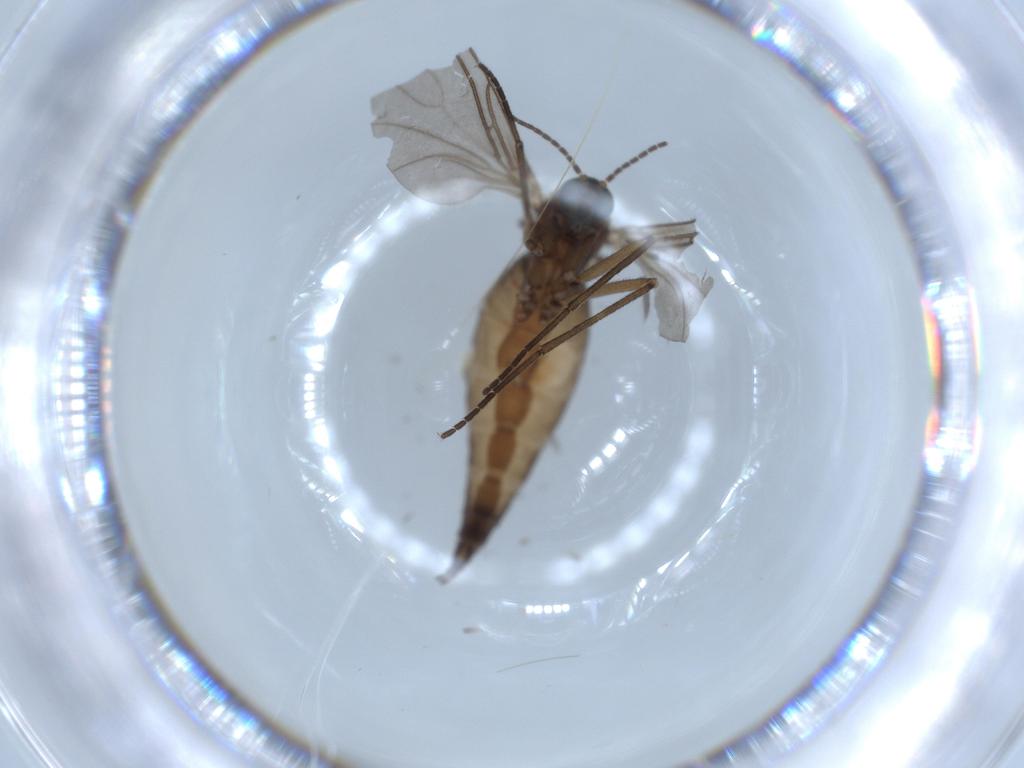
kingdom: Animalia
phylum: Arthropoda
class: Insecta
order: Diptera
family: Sciaridae
